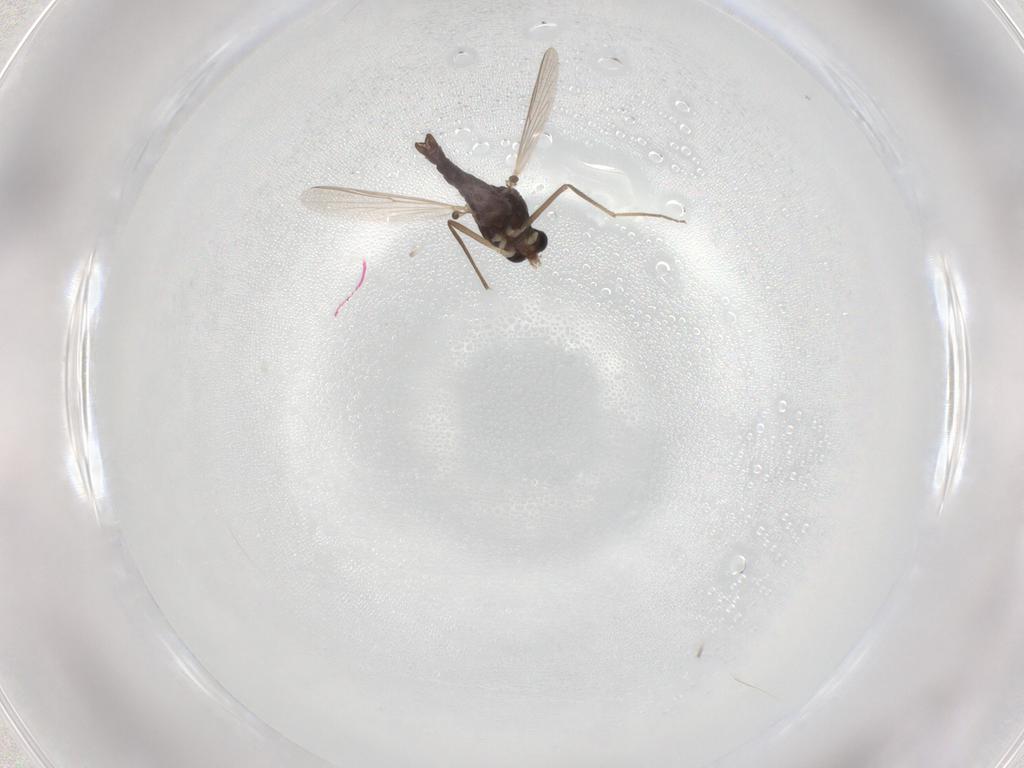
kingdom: Animalia
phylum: Arthropoda
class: Insecta
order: Diptera
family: Chironomidae
